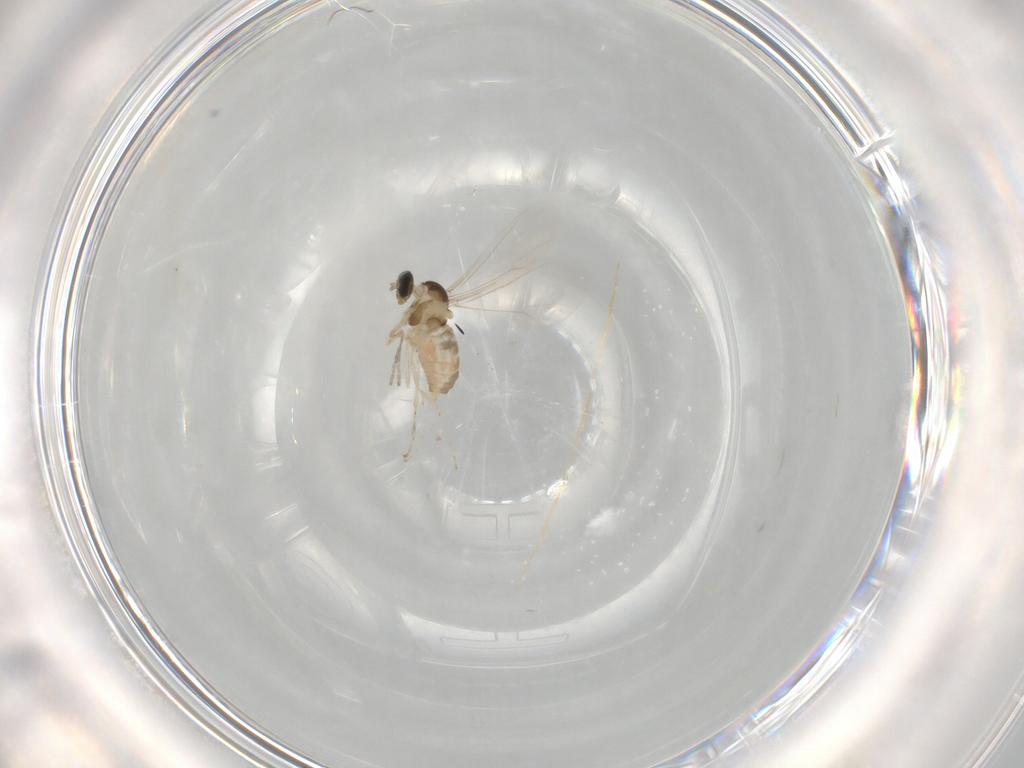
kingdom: Animalia
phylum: Arthropoda
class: Insecta
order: Diptera
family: Cecidomyiidae
